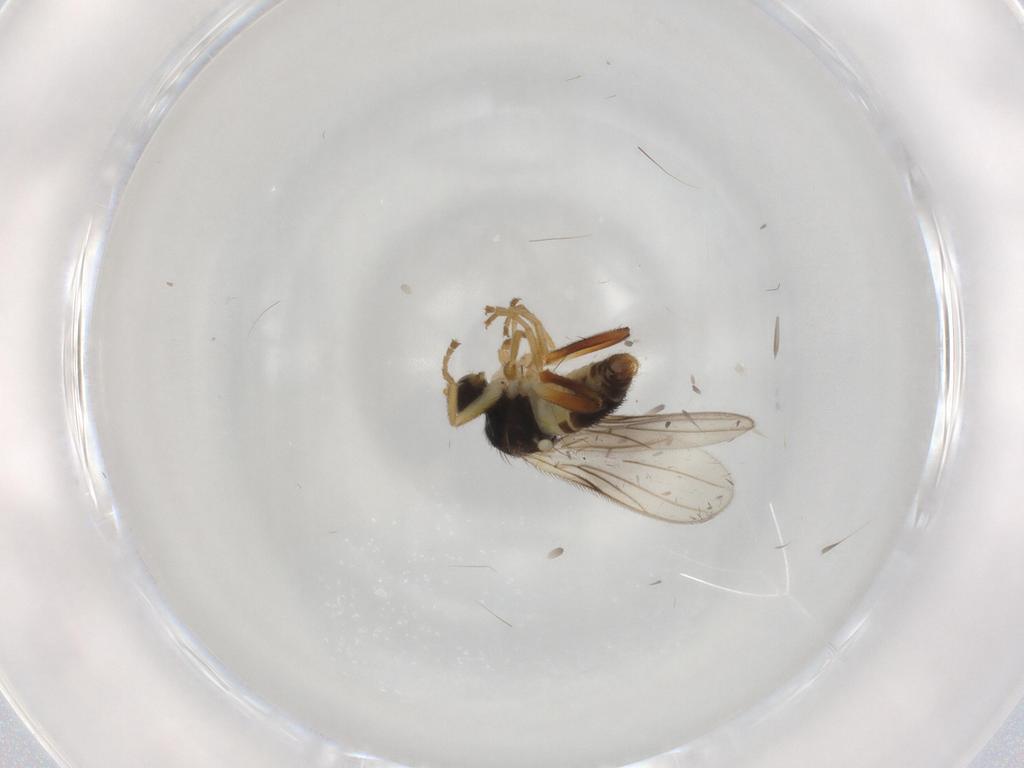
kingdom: Animalia
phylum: Arthropoda
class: Insecta
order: Diptera
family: Hybotidae
